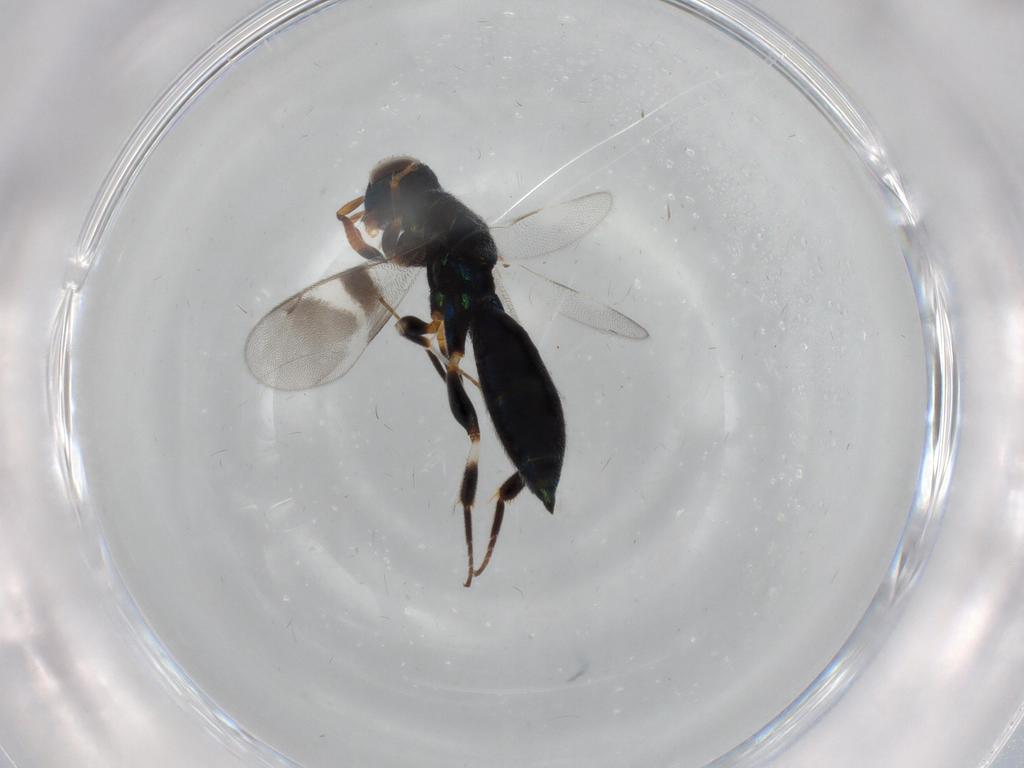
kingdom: Animalia
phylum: Arthropoda
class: Insecta
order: Hymenoptera
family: Cleonyminae
